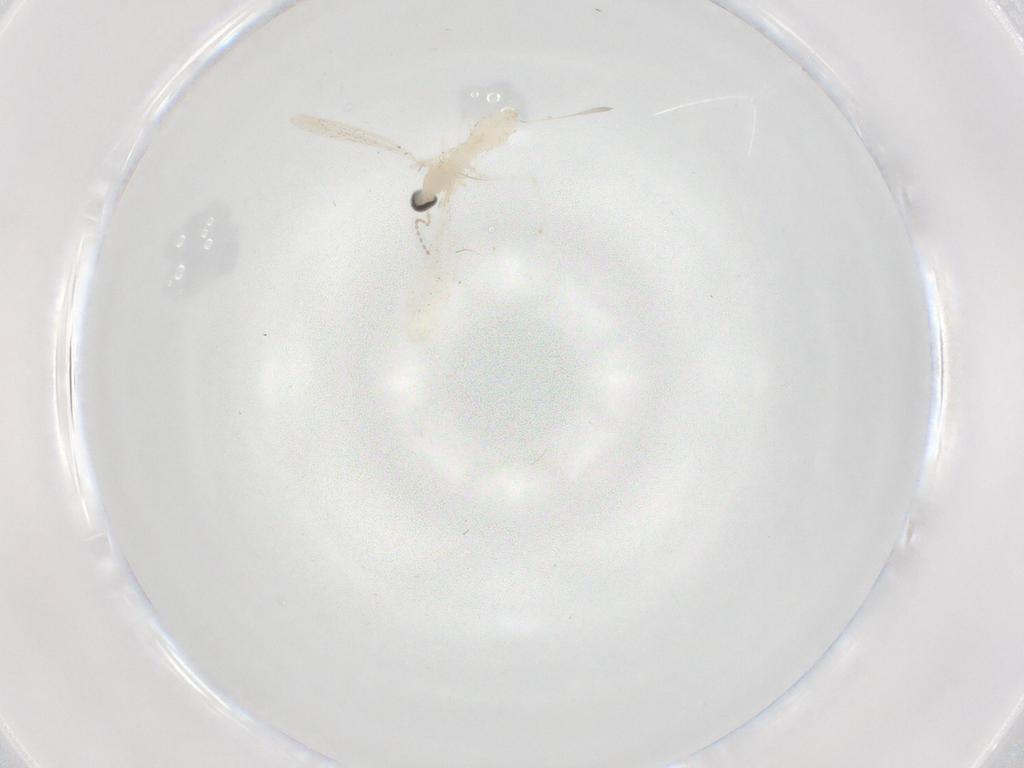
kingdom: Animalia
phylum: Arthropoda
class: Insecta
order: Diptera
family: Cecidomyiidae
